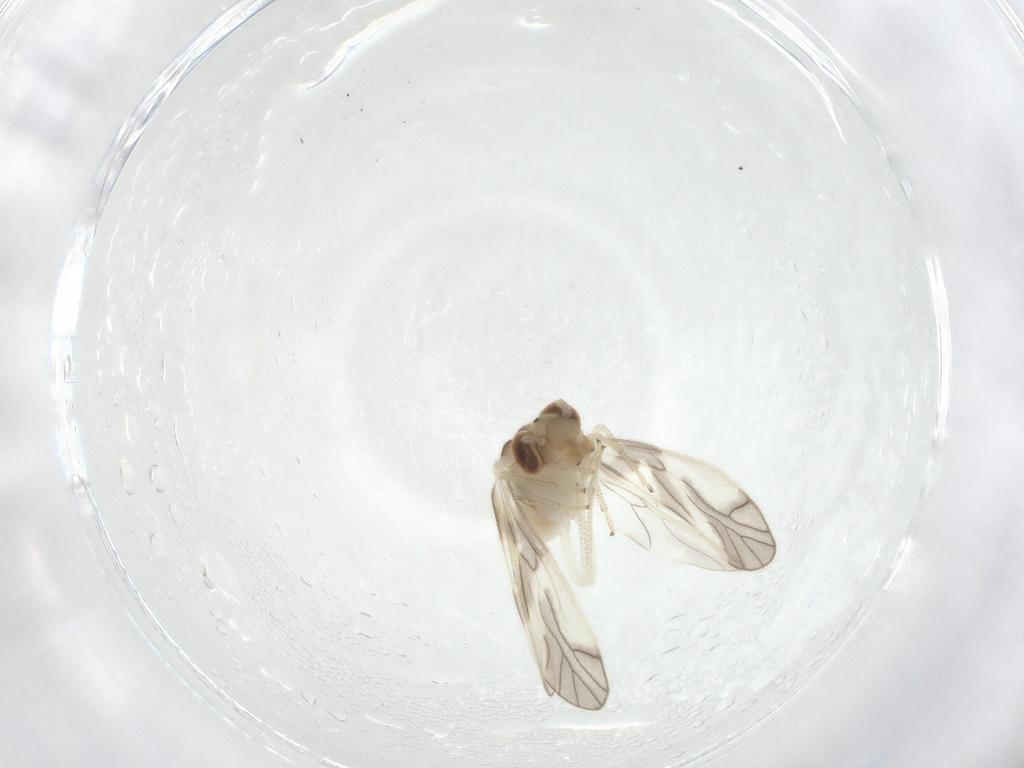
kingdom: Animalia
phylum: Arthropoda
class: Insecta
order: Psocodea
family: Caeciliusidae
